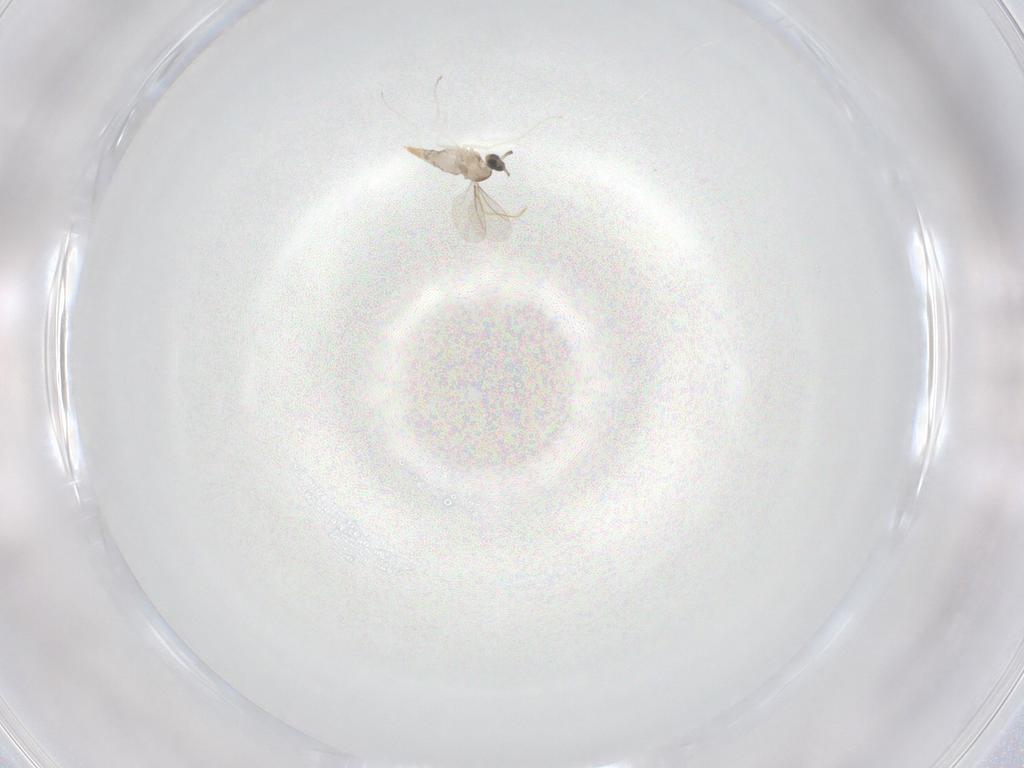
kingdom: Animalia
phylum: Arthropoda
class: Insecta
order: Diptera
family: Cecidomyiidae
